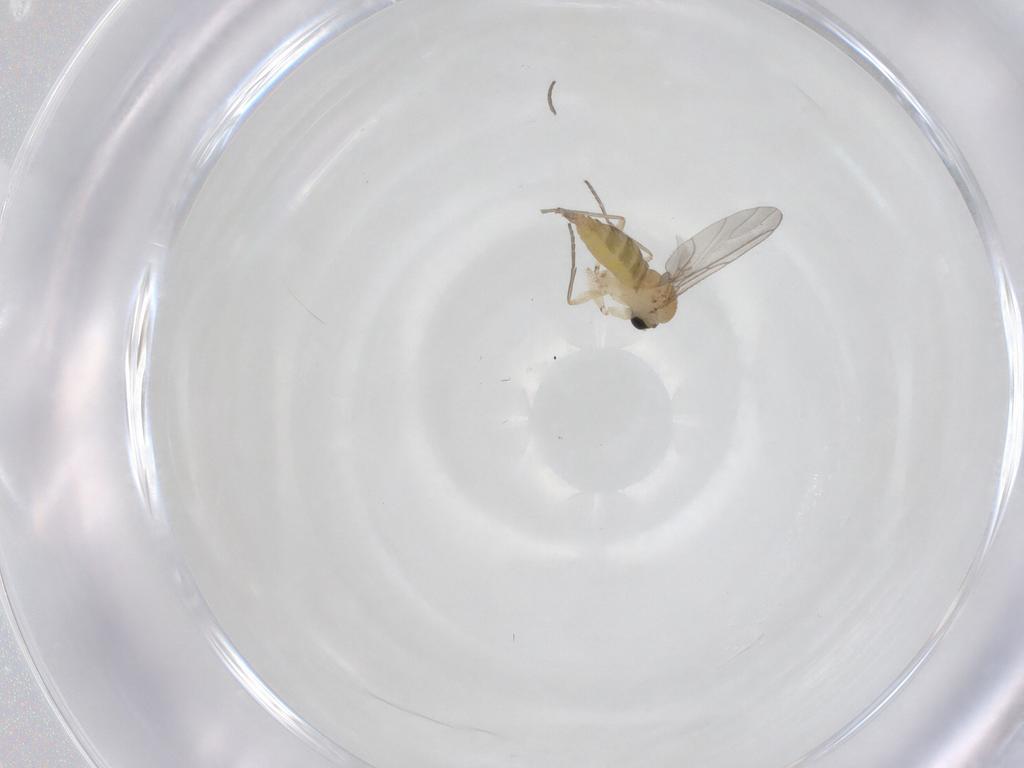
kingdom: Animalia
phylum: Arthropoda
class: Insecta
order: Diptera
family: Sciaridae
